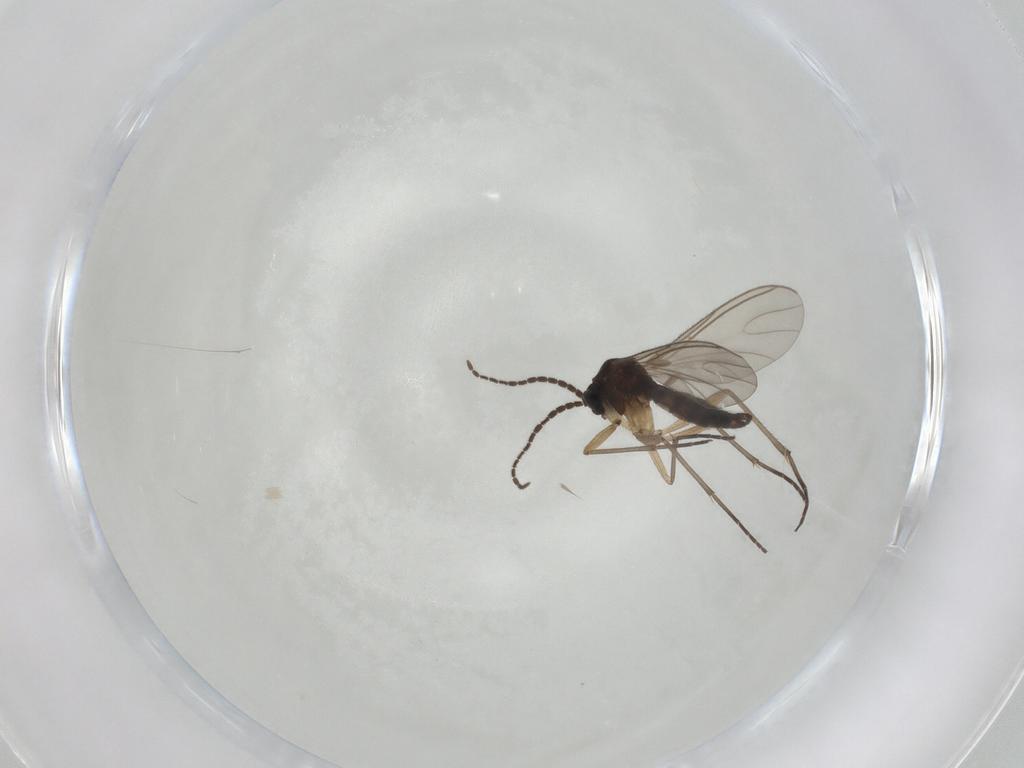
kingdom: Animalia
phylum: Arthropoda
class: Insecta
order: Diptera
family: Sciaridae
